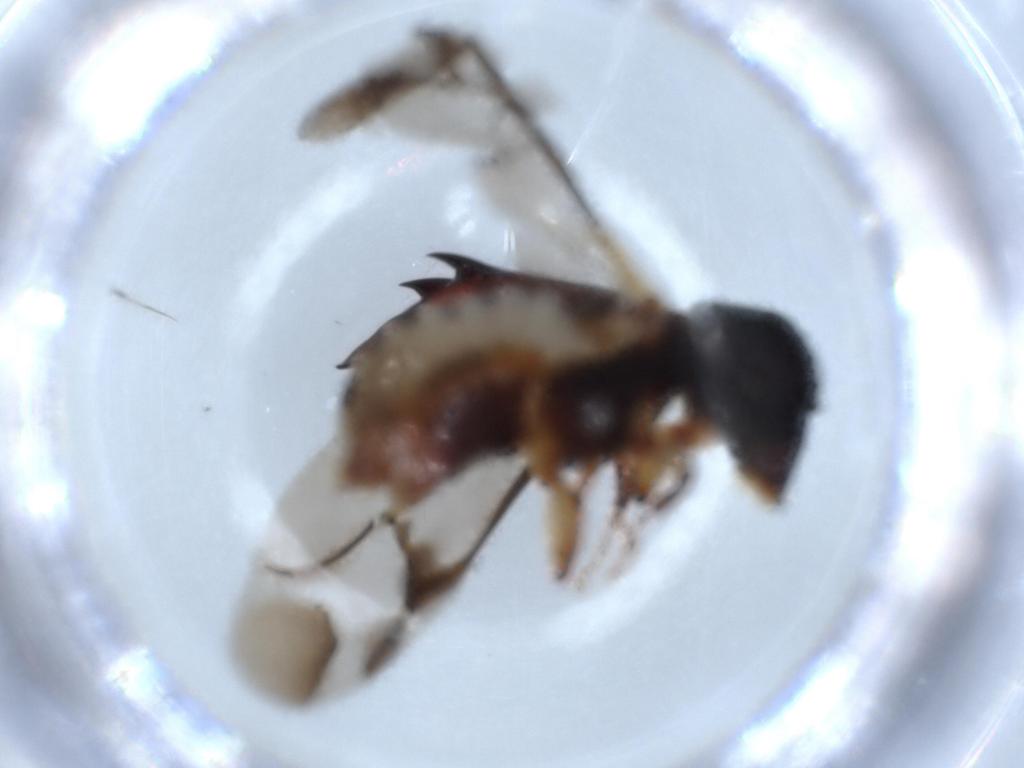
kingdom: Animalia
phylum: Arthropoda
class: Insecta
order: Coleoptera
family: Bostrichidae
